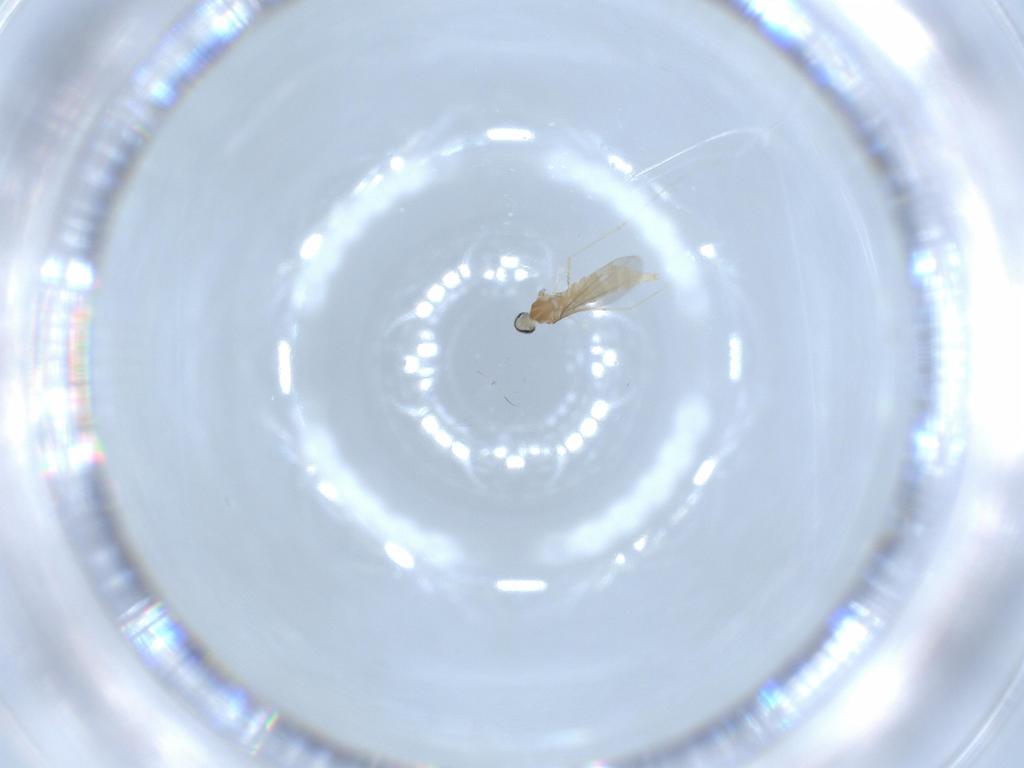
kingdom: Animalia
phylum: Arthropoda
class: Insecta
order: Diptera
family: Cecidomyiidae
